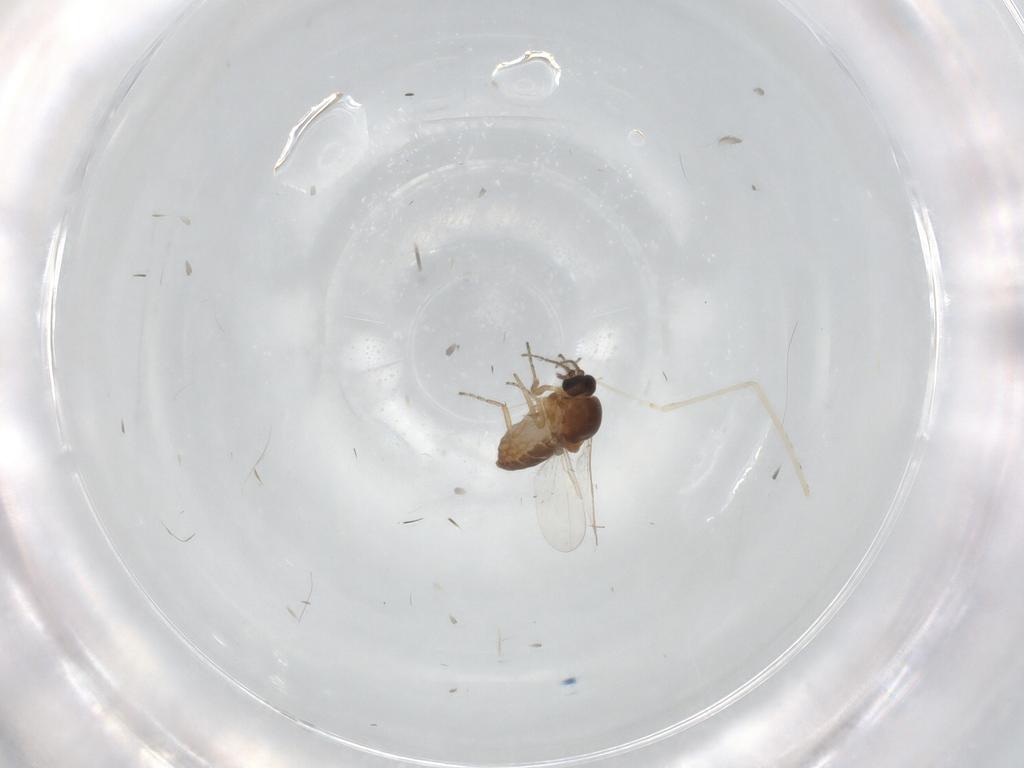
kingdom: Animalia
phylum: Arthropoda
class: Insecta
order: Diptera
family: Ceratopogonidae
